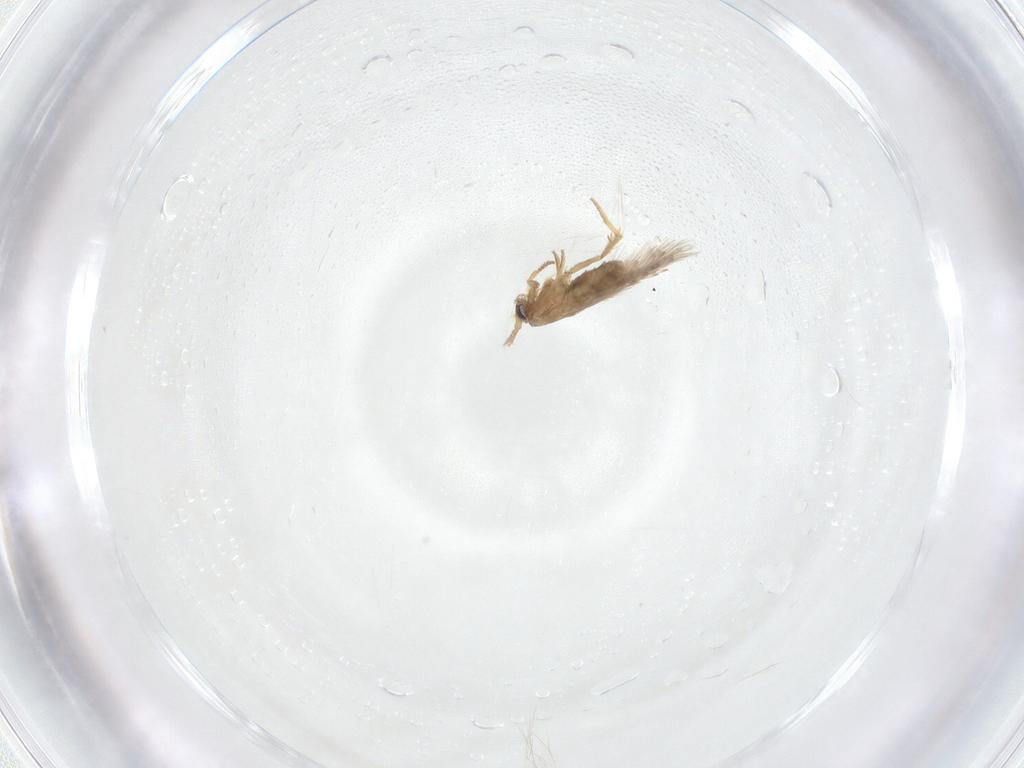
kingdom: Animalia
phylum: Arthropoda
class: Insecta
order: Lepidoptera
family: Nepticulidae
